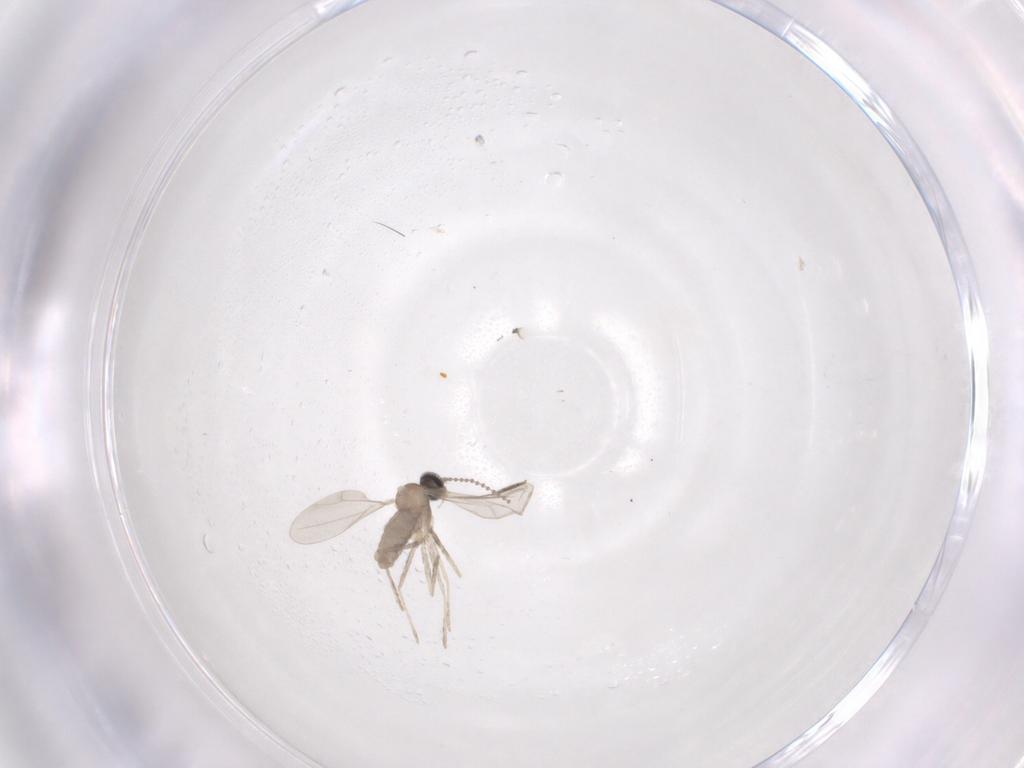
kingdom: Animalia
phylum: Arthropoda
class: Insecta
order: Diptera
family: Cecidomyiidae
